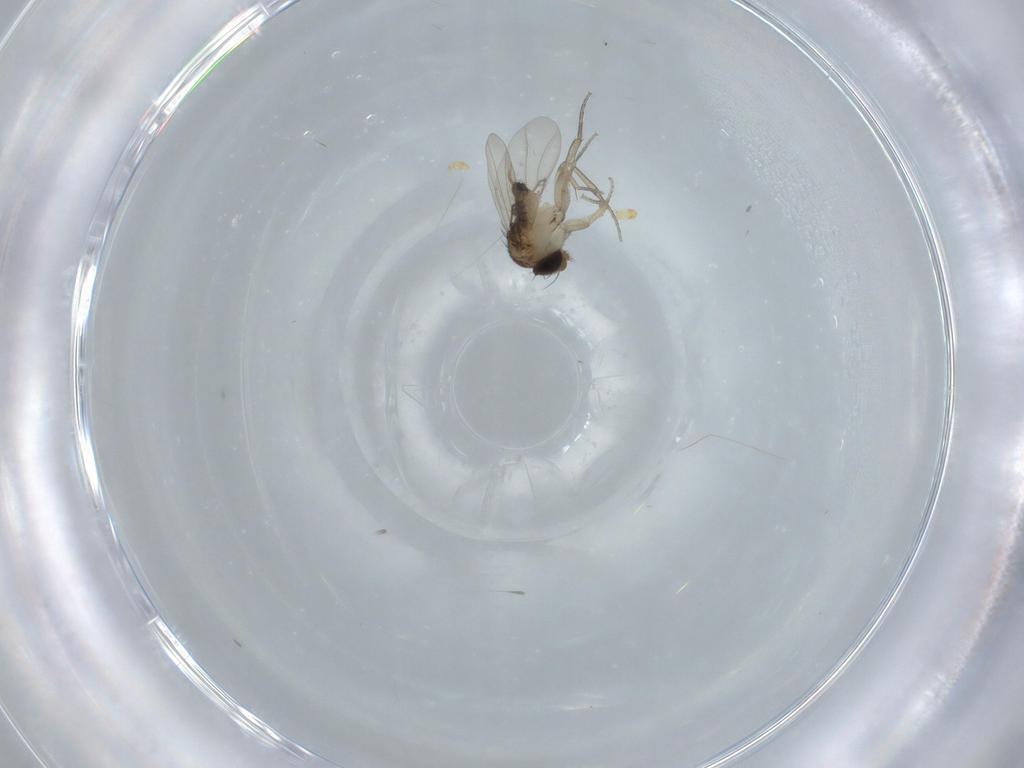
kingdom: Animalia
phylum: Arthropoda
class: Insecta
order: Diptera
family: Phoridae
